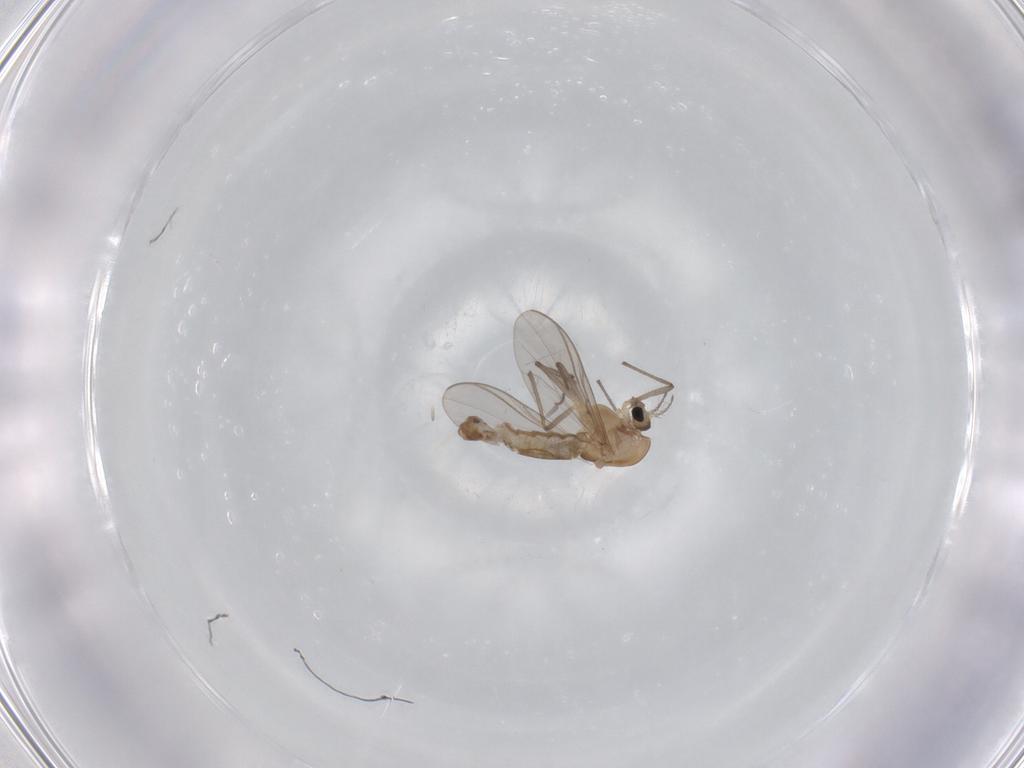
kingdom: Animalia
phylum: Arthropoda
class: Insecta
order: Diptera
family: Chironomidae
